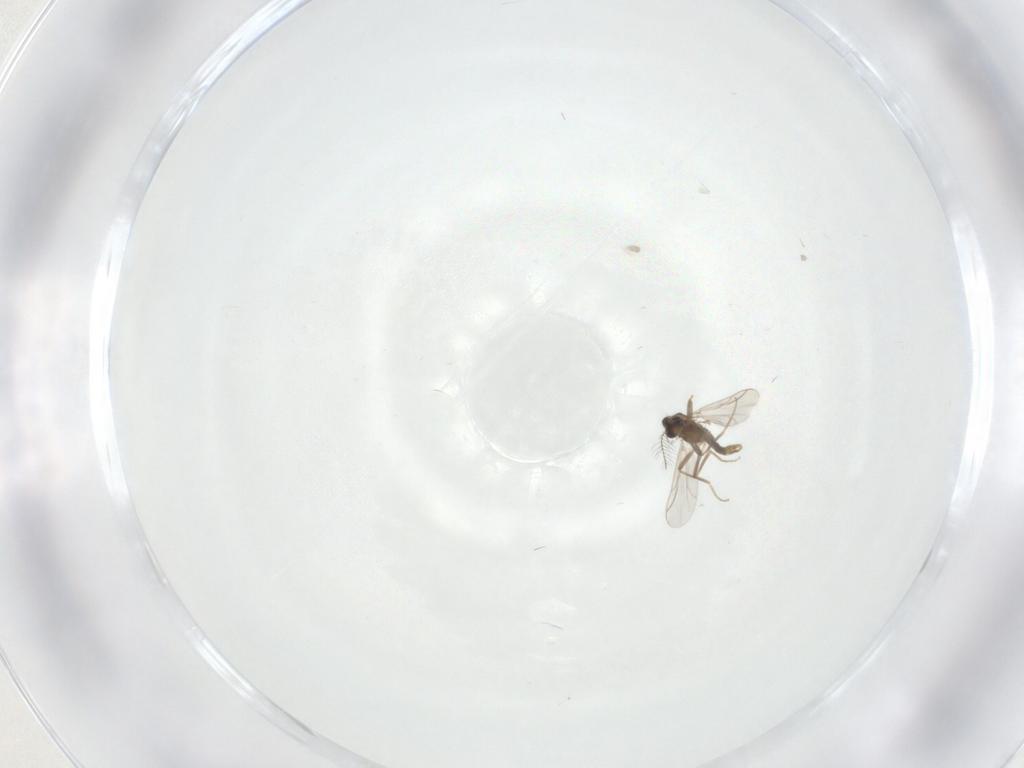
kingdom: Animalia
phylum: Arthropoda
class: Insecta
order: Diptera
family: Chironomidae
